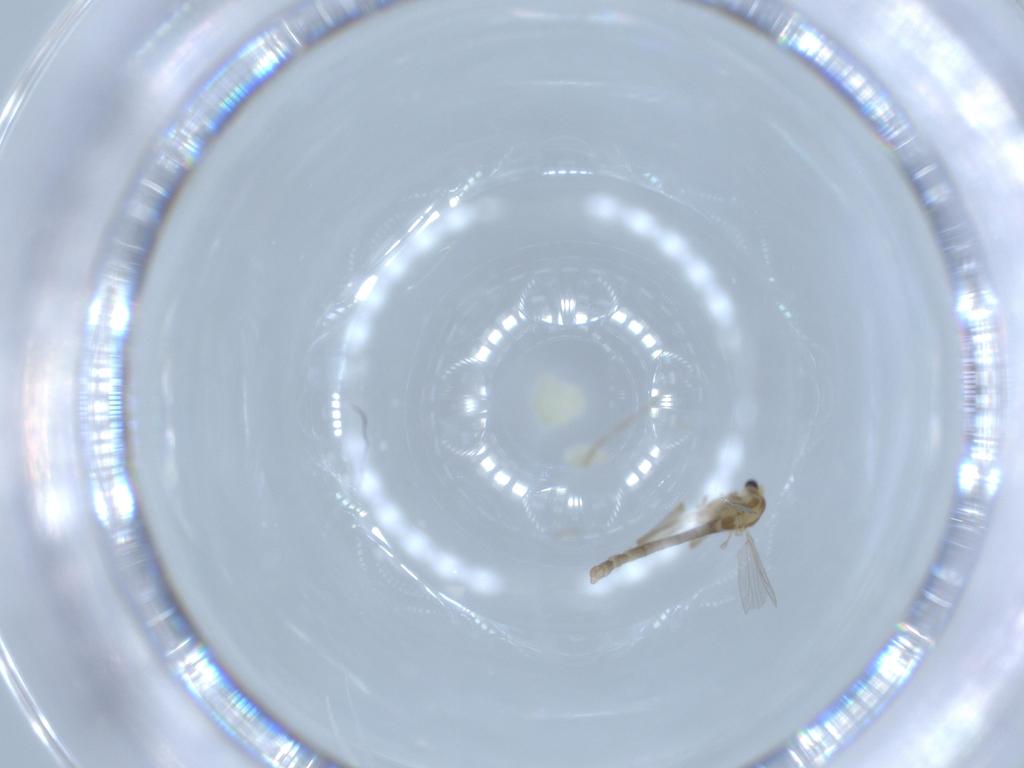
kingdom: Animalia
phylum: Arthropoda
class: Insecta
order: Diptera
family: Chironomidae
